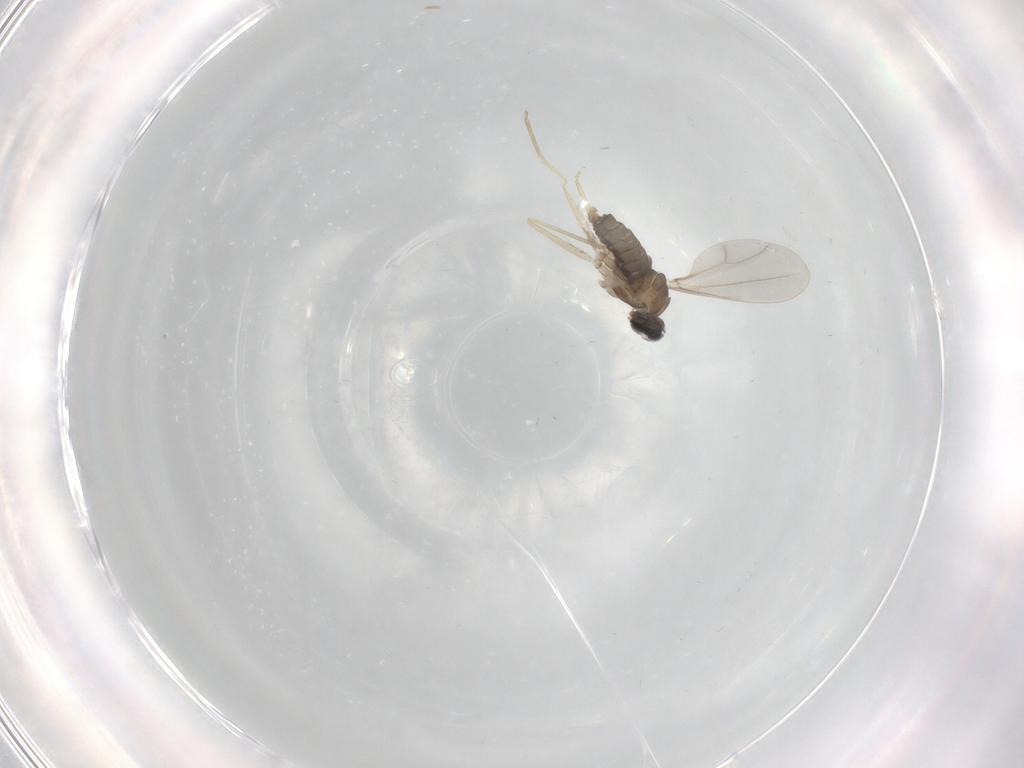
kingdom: Animalia
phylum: Arthropoda
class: Insecta
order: Diptera
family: Cecidomyiidae
